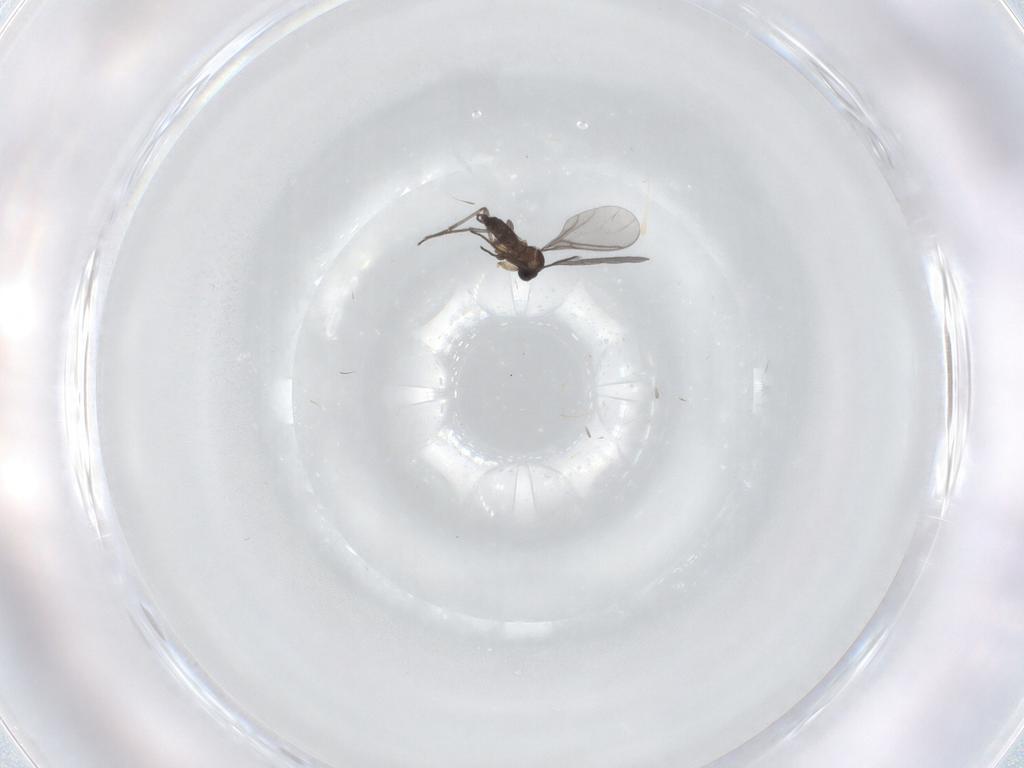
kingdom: Animalia
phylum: Arthropoda
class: Insecta
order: Diptera
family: Sciaridae
